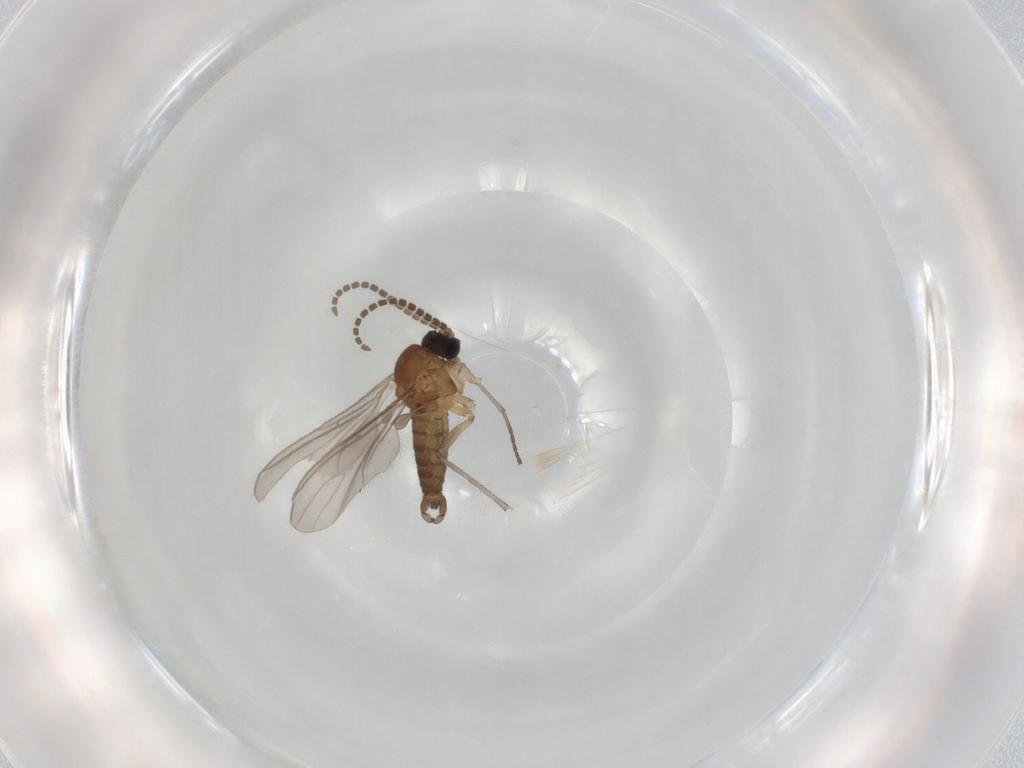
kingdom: Animalia
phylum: Arthropoda
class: Insecta
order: Diptera
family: Sciaridae
